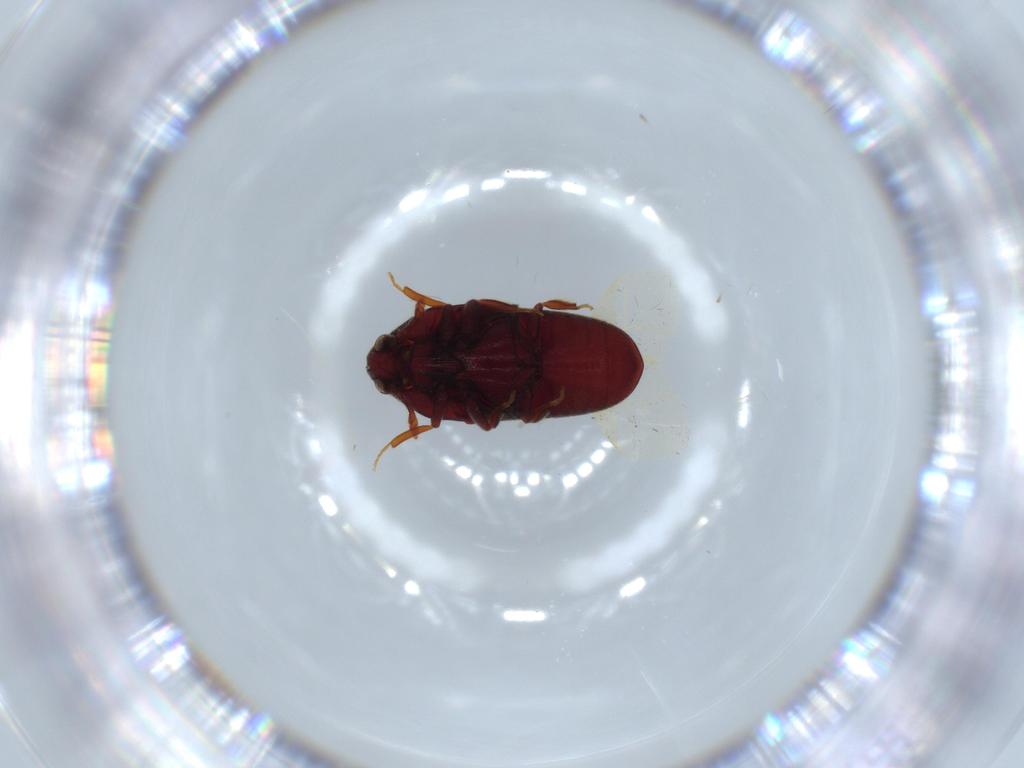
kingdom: Animalia
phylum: Arthropoda
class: Insecta
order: Coleoptera
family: Throscidae
